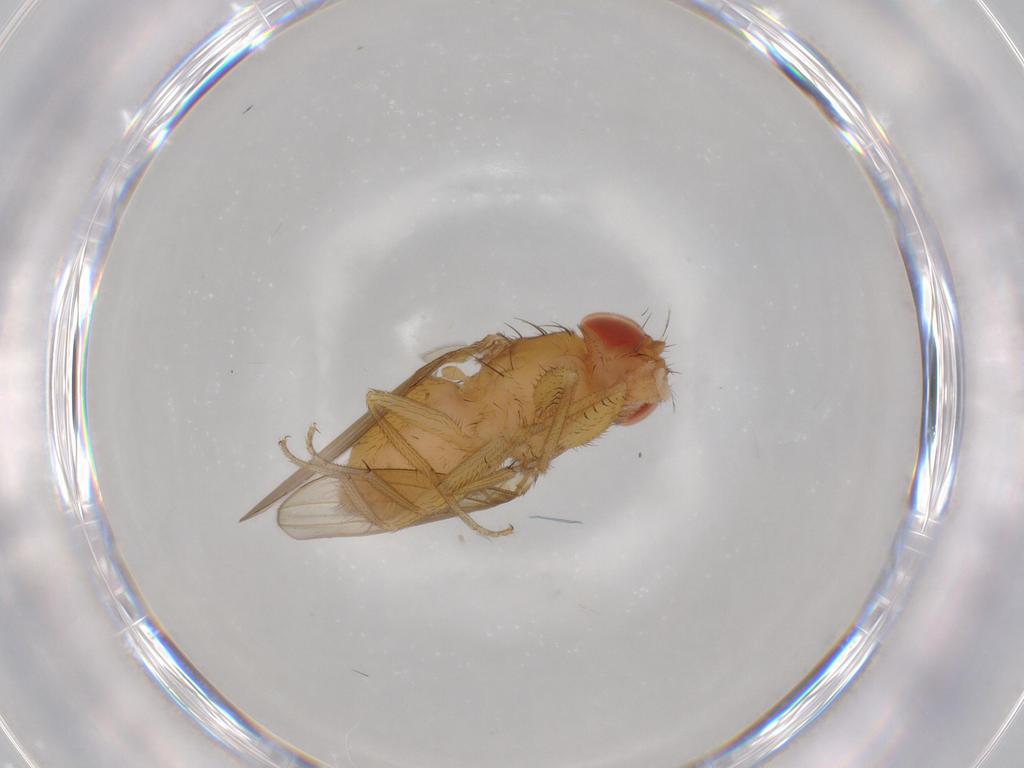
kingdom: Animalia
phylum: Arthropoda
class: Insecta
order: Diptera
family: Drosophilidae
